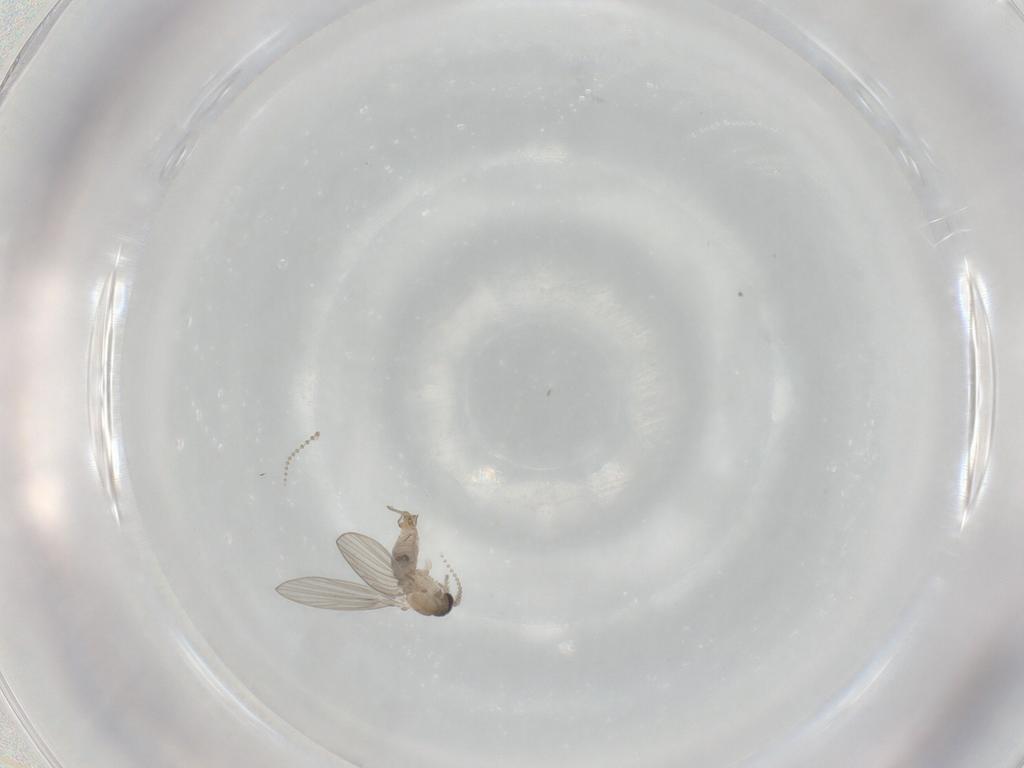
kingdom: Animalia
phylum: Arthropoda
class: Insecta
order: Diptera
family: Psychodidae
